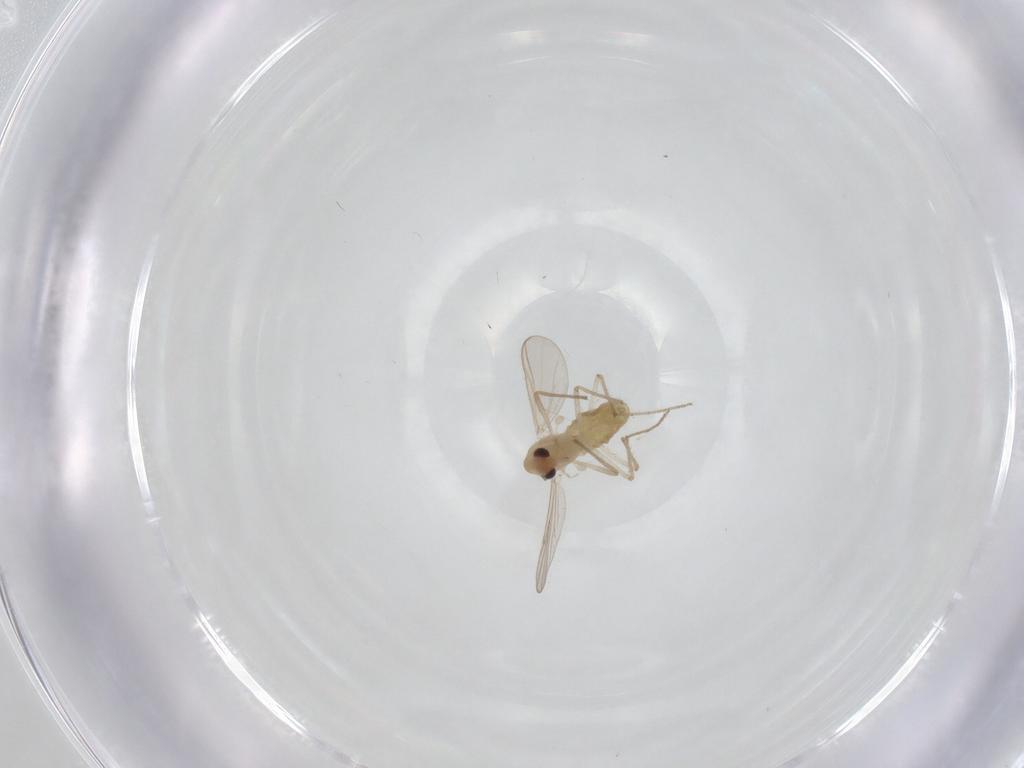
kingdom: Animalia
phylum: Arthropoda
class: Insecta
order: Diptera
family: Chironomidae
